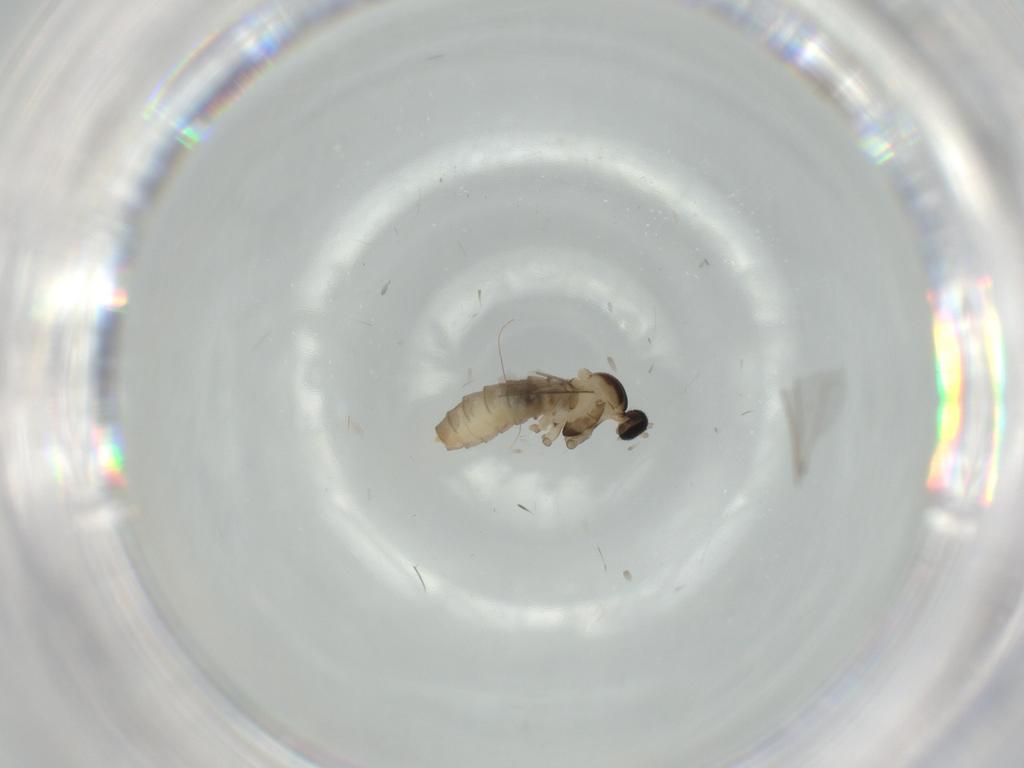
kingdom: Animalia
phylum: Arthropoda
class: Insecta
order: Diptera
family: Cecidomyiidae
